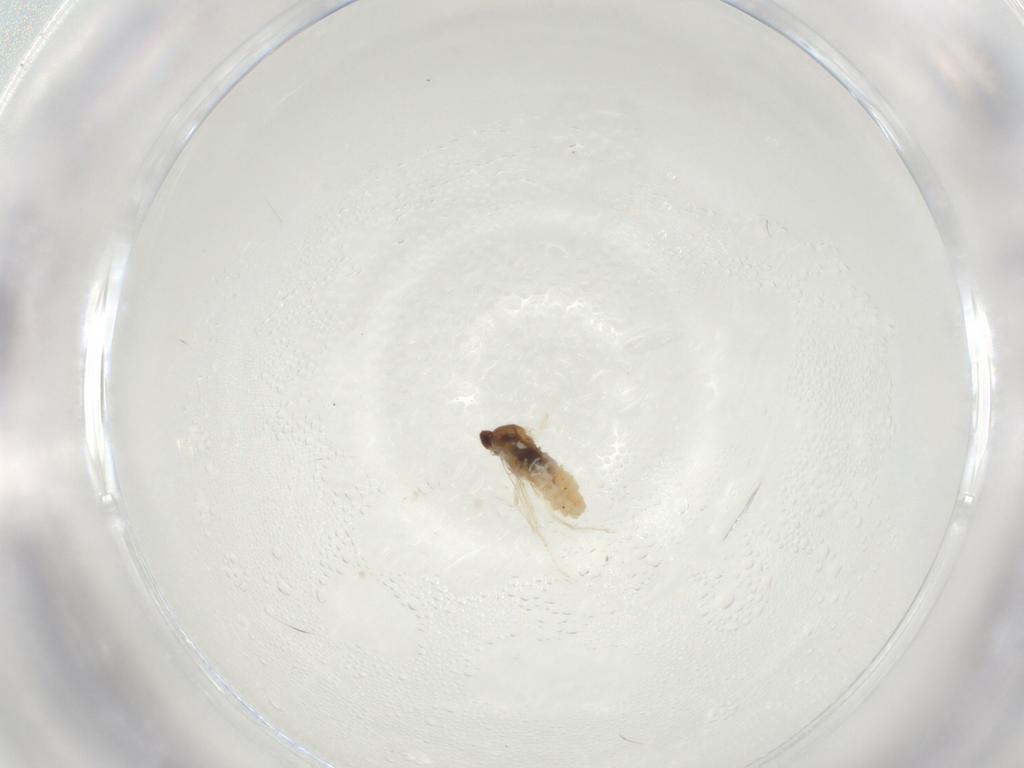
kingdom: Animalia
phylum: Arthropoda
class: Insecta
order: Diptera
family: Cecidomyiidae
